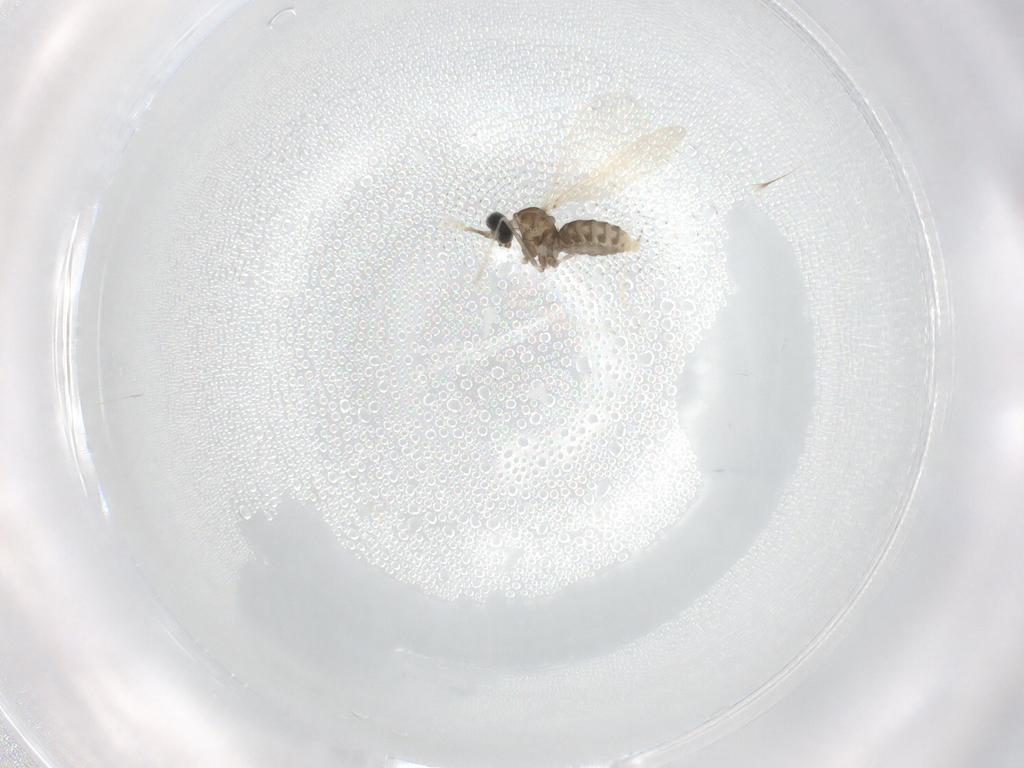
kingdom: Animalia
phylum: Arthropoda
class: Insecta
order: Diptera
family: Cecidomyiidae
